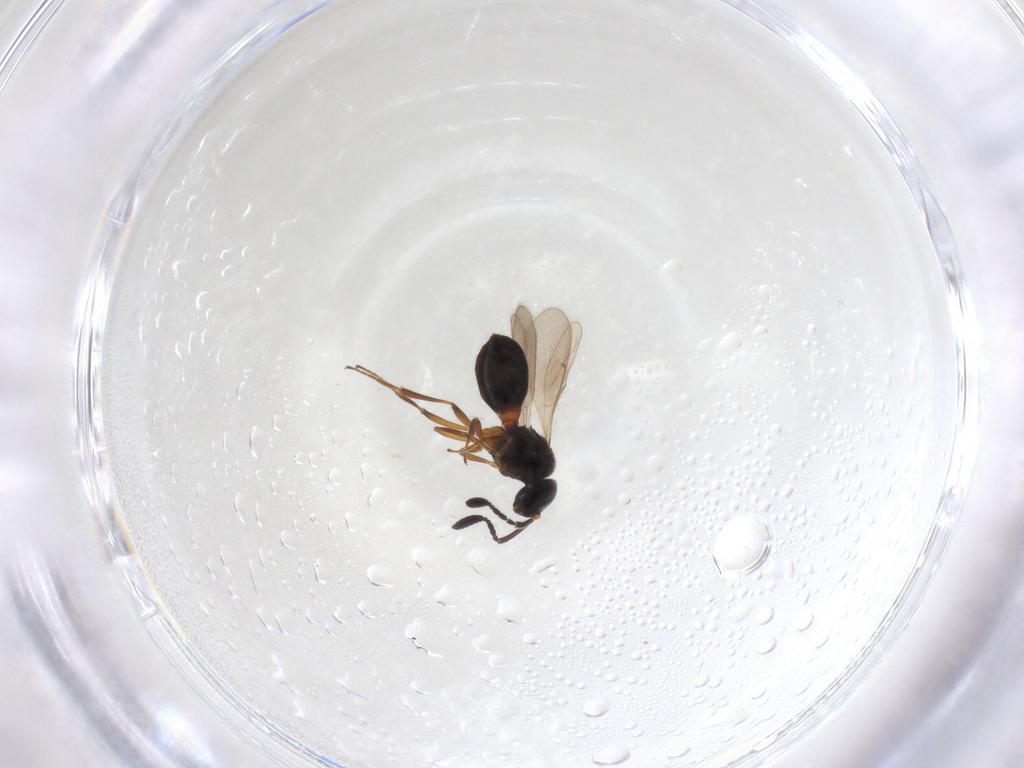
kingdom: Animalia
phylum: Arthropoda
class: Insecta
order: Hymenoptera
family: Scelionidae
